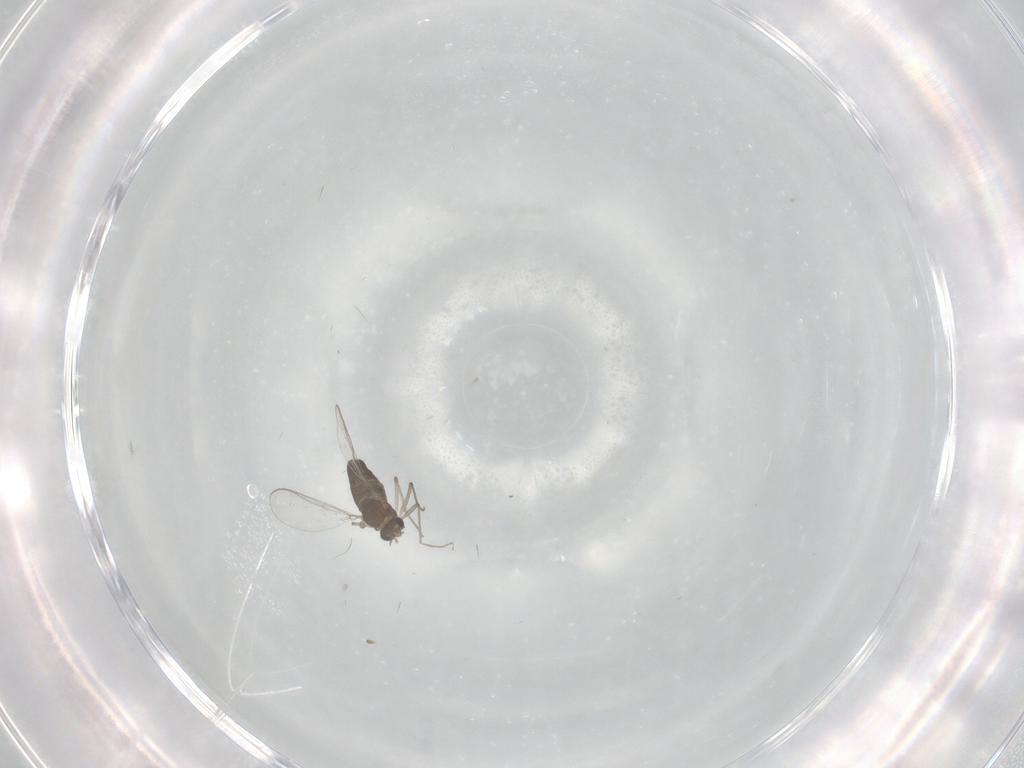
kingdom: Animalia
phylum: Arthropoda
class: Insecta
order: Diptera
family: Chironomidae
